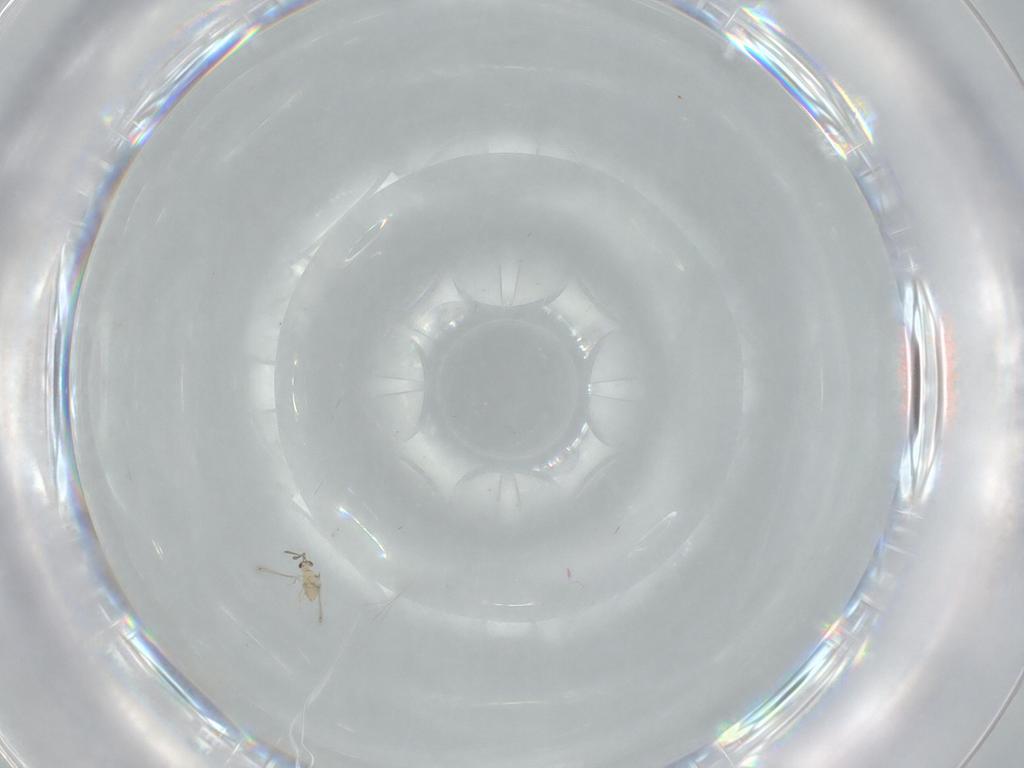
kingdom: Animalia
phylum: Arthropoda
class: Insecta
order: Hymenoptera
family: Mymaridae
